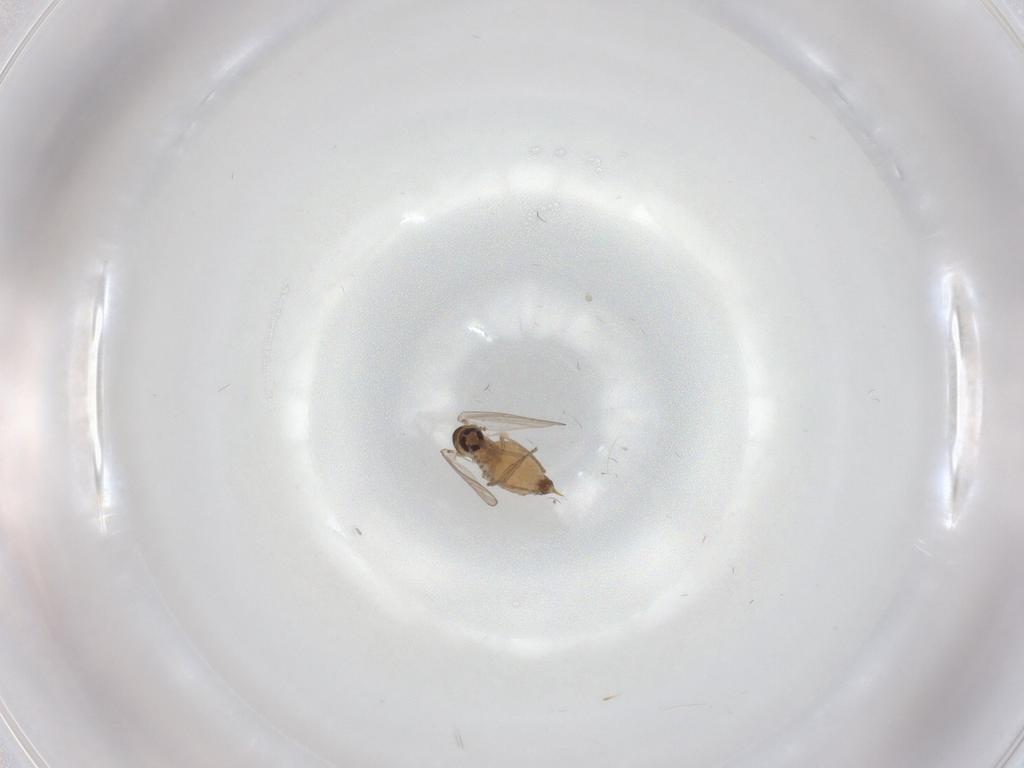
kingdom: Animalia
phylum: Arthropoda
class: Insecta
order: Diptera
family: Psychodidae
